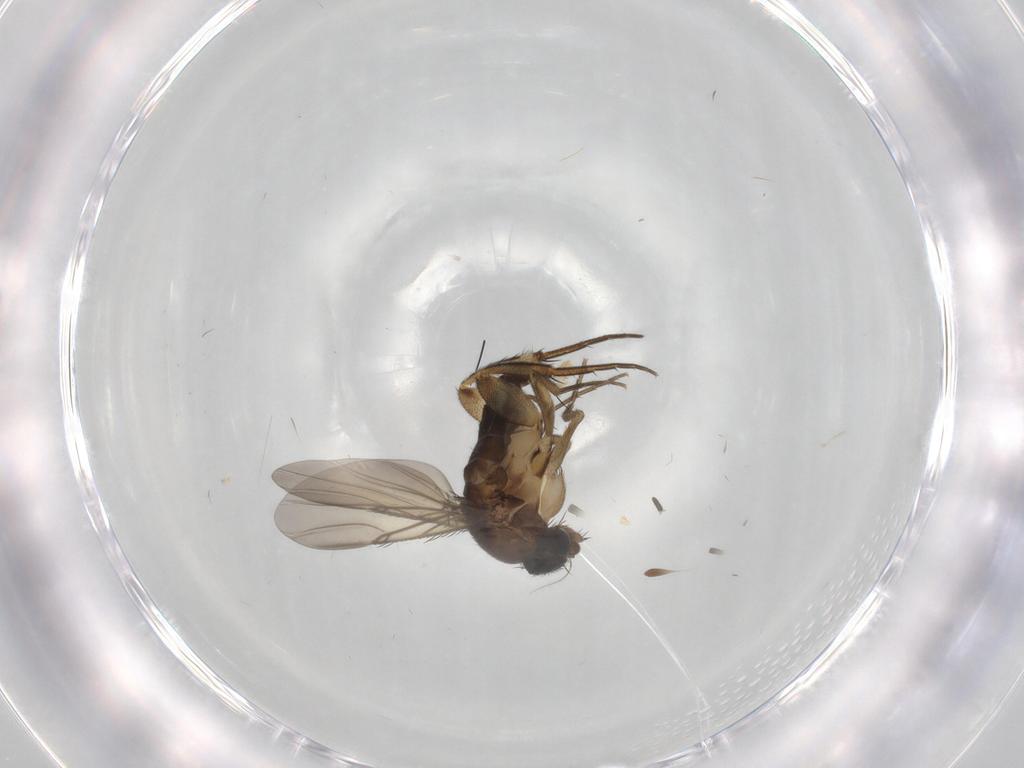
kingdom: Animalia
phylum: Arthropoda
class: Insecta
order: Diptera
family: Phoridae
